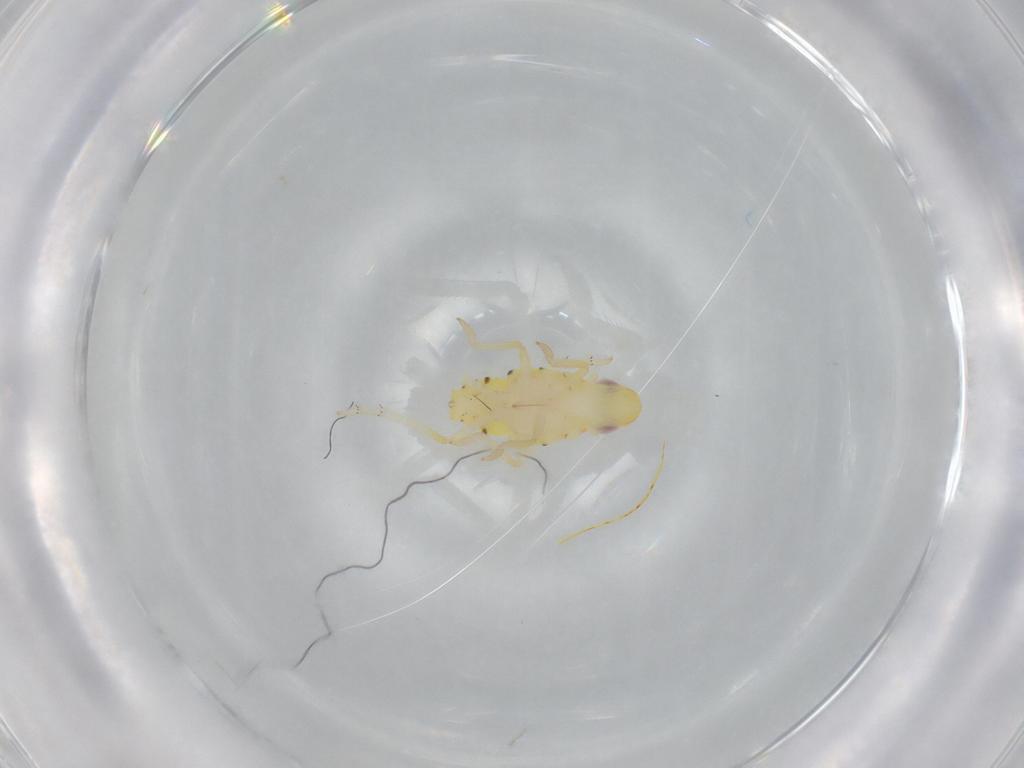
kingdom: Animalia
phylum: Arthropoda
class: Insecta
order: Hemiptera
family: Tropiduchidae
